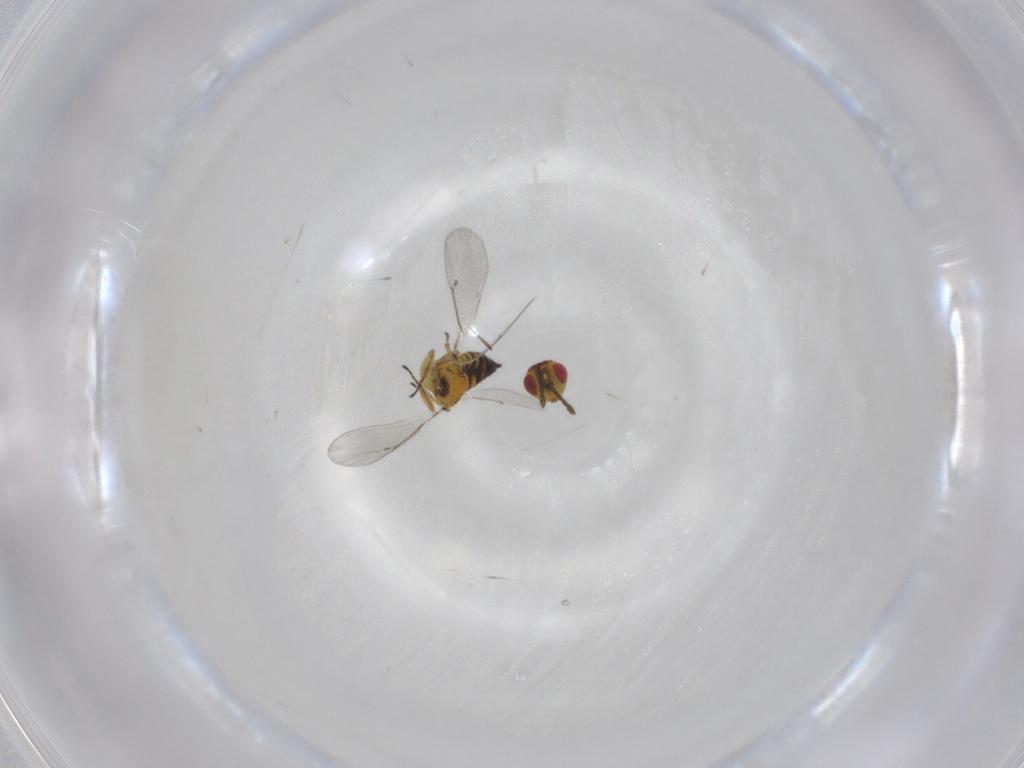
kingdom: Animalia
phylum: Arthropoda
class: Insecta
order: Hymenoptera
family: Eulophidae
